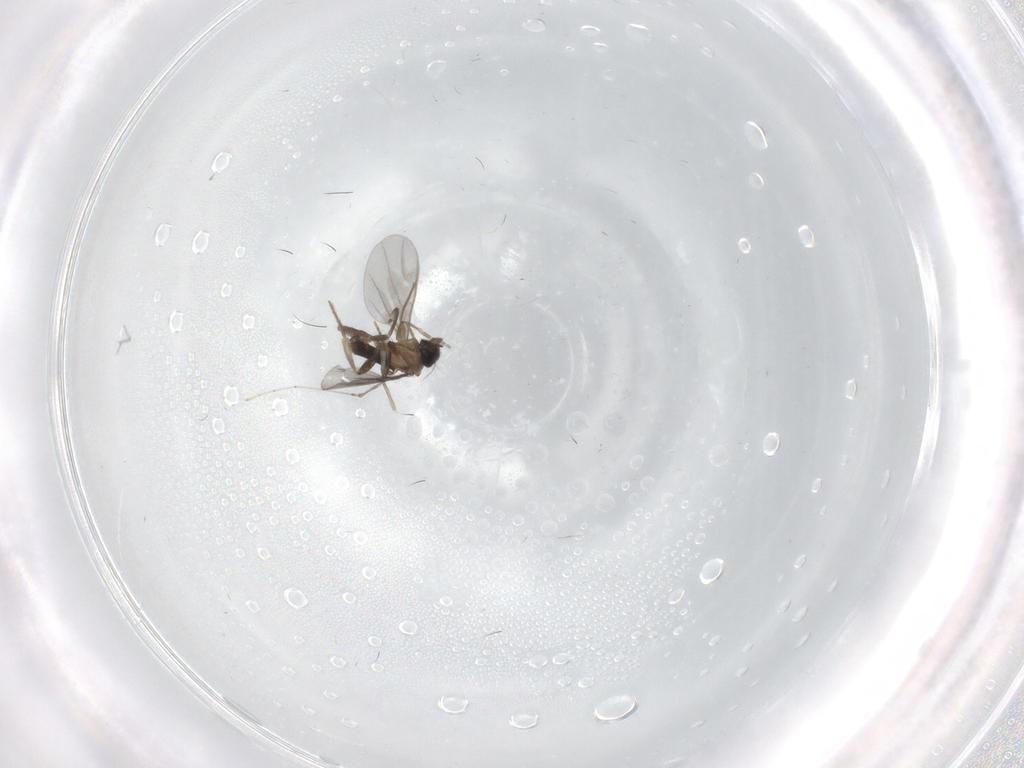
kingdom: Animalia
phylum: Arthropoda
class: Insecta
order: Diptera
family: Cecidomyiidae
